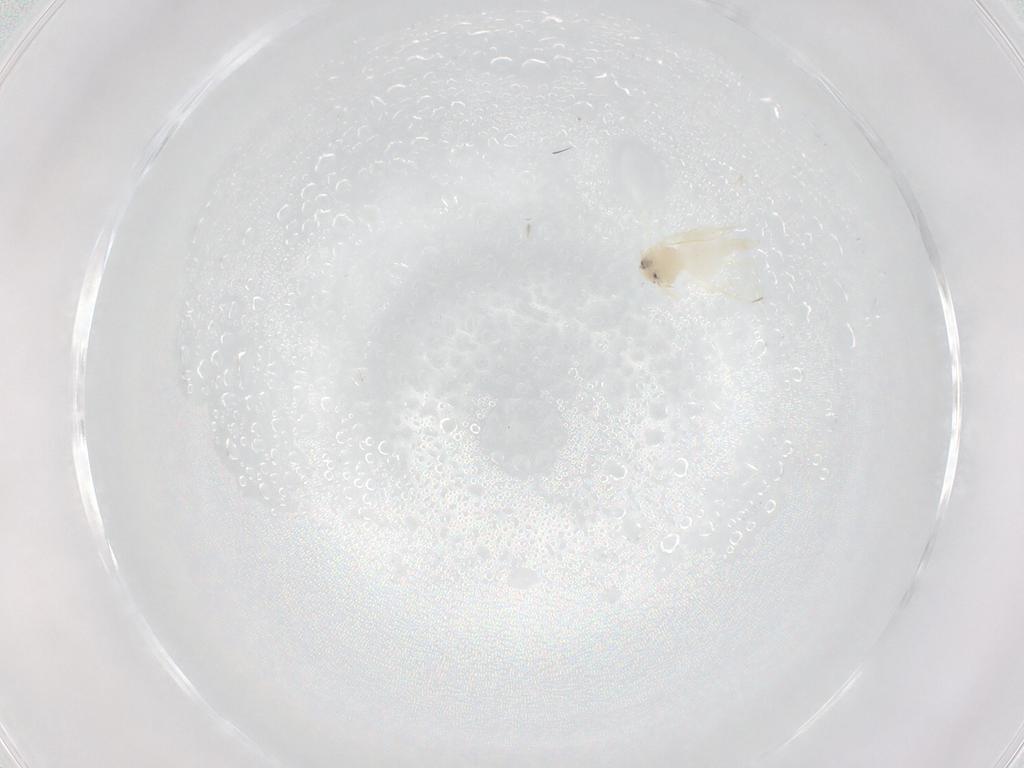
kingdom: Animalia
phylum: Arthropoda
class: Insecta
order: Hemiptera
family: Aleyrodidae
